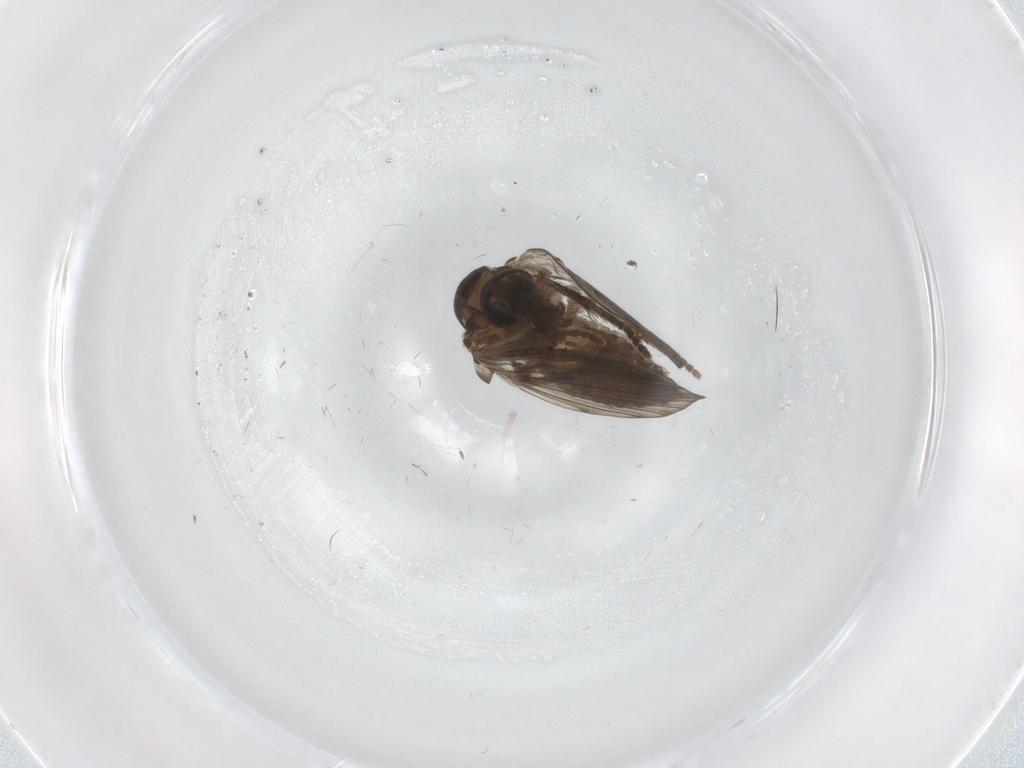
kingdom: Animalia
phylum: Arthropoda
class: Insecta
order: Diptera
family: Psychodidae
